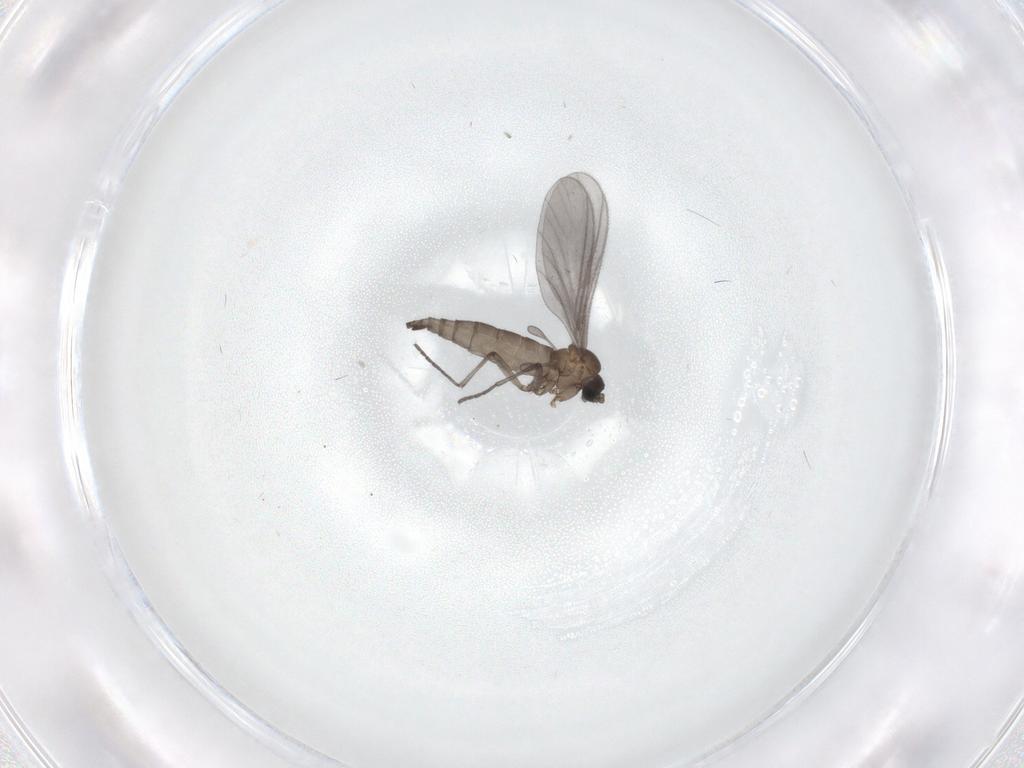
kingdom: Animalia
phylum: Arthropoda
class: Insecta
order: Diptera
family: Sciaridae
